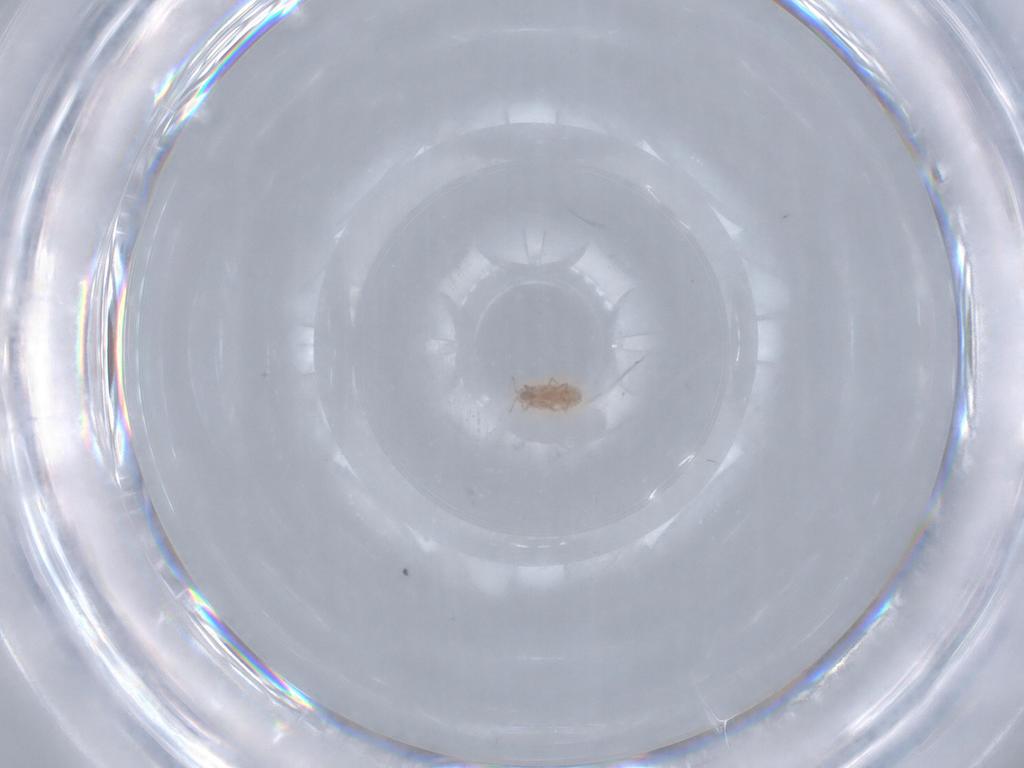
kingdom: Animalia
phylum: Arthropoda
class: Insecta
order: Hemiptera
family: Pseudococcidae
